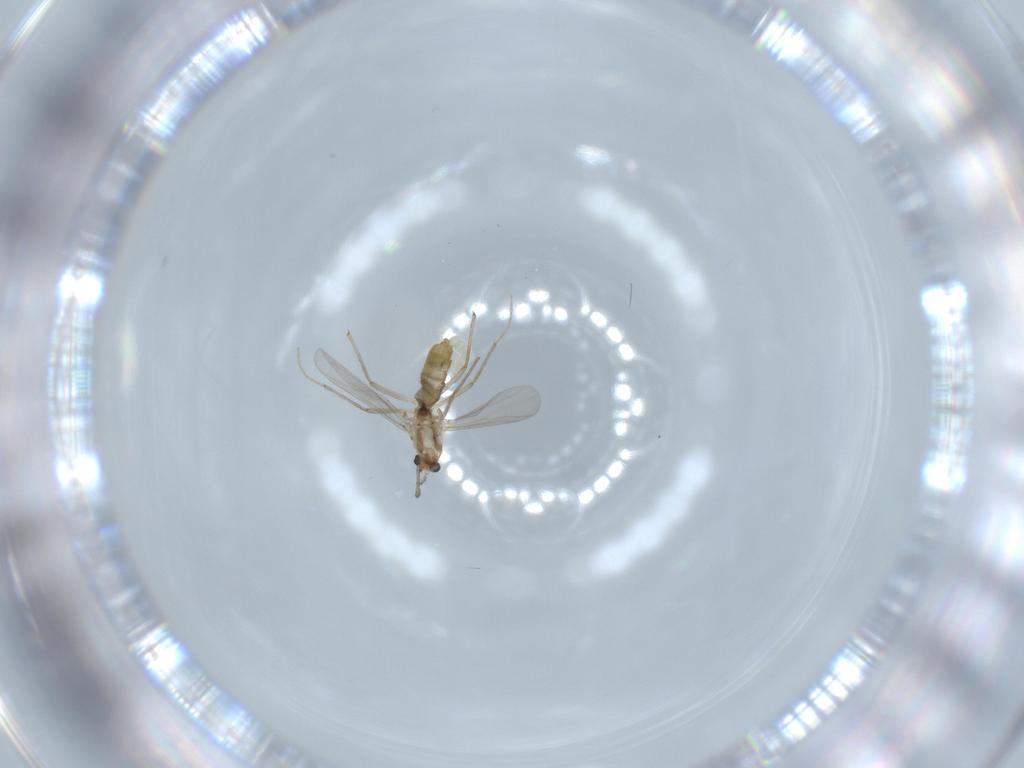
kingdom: Animalia
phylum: Arthropoda
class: Insecta
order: Diptera
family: Chironomidae
